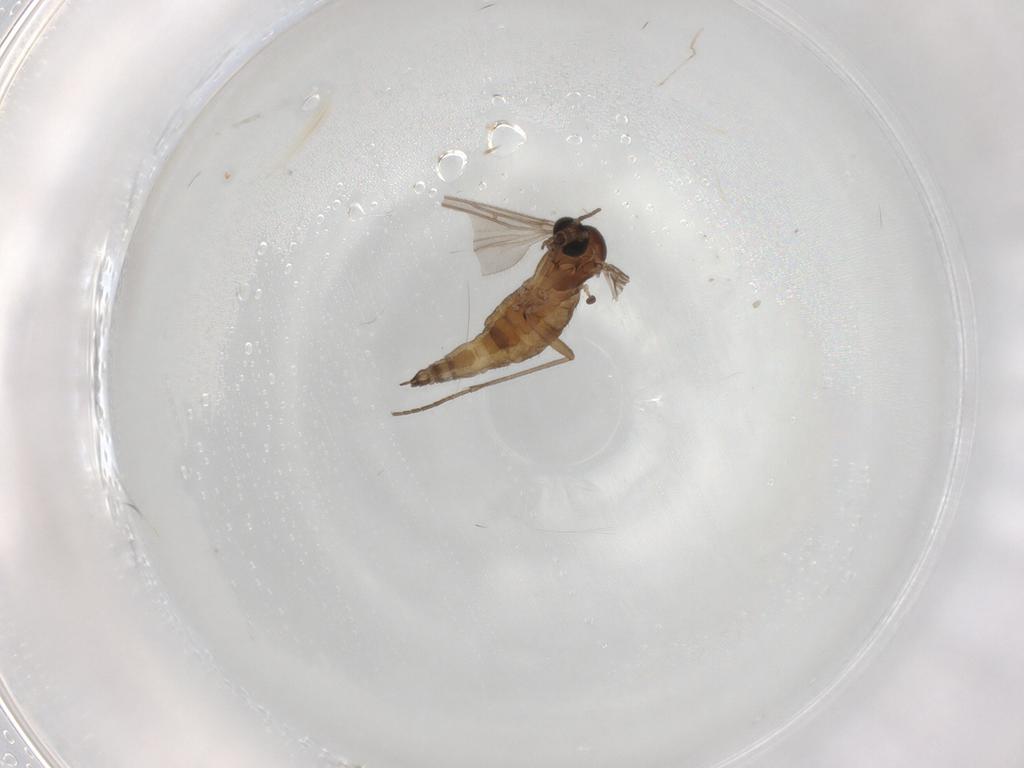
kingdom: Animalia
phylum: Arthropoda
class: Insecta
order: Diptera
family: Sciaridae
